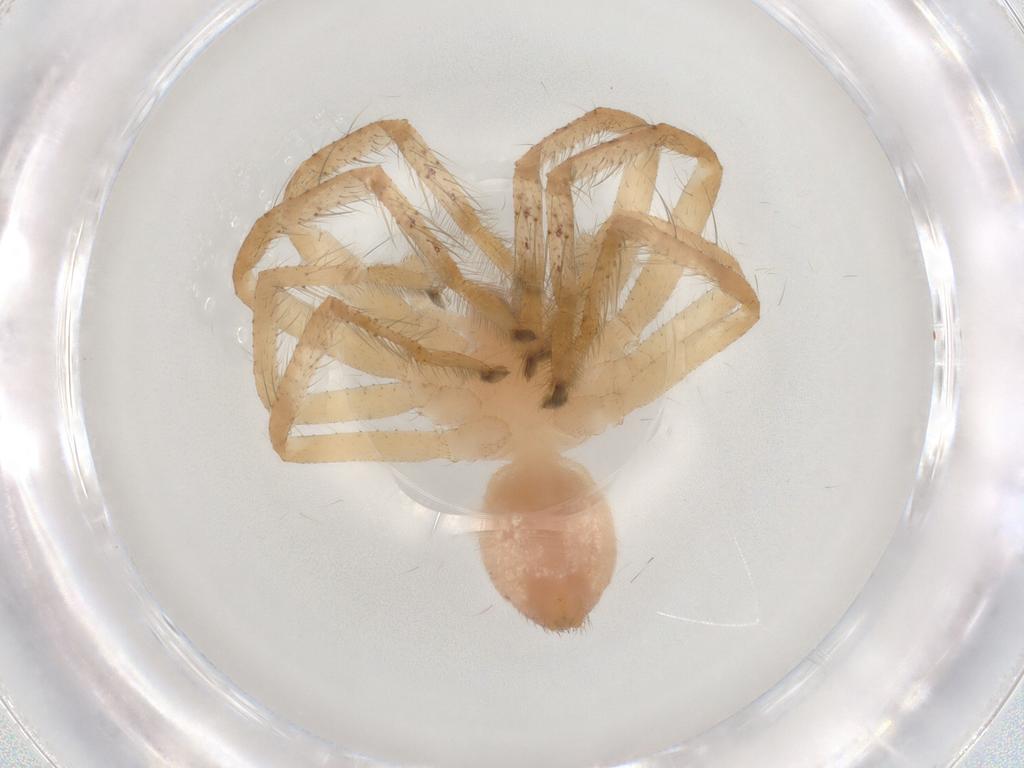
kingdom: Animalia
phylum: Arthropoda
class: Arachnida
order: Araneae
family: Sparassidae
